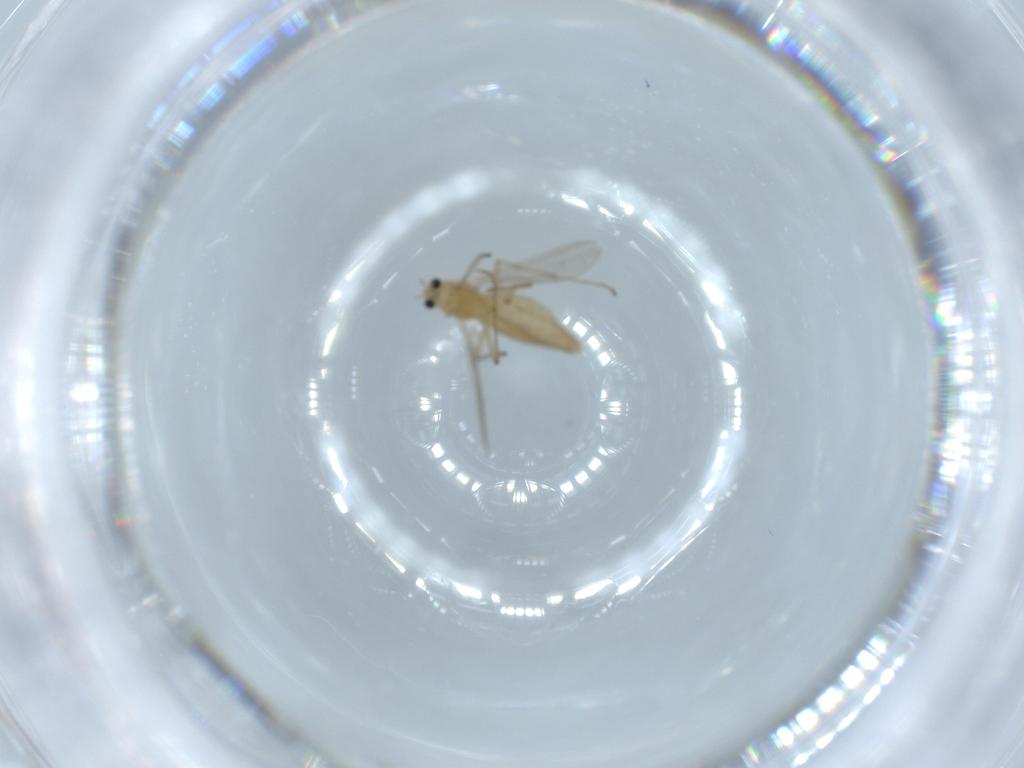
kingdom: Animalia
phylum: Arthropoda
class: Insecta
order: Diptera
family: Chironomidae
